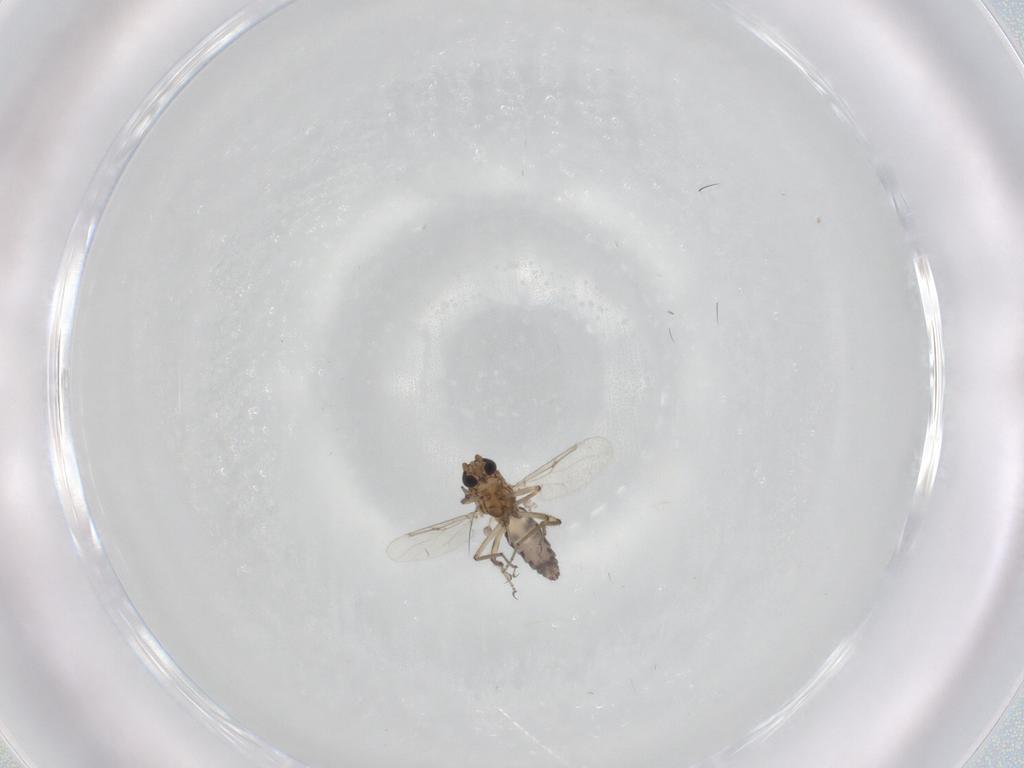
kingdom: Animalia
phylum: Arthropoda
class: Insecta
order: Diptera
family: Ceratopogonidae
